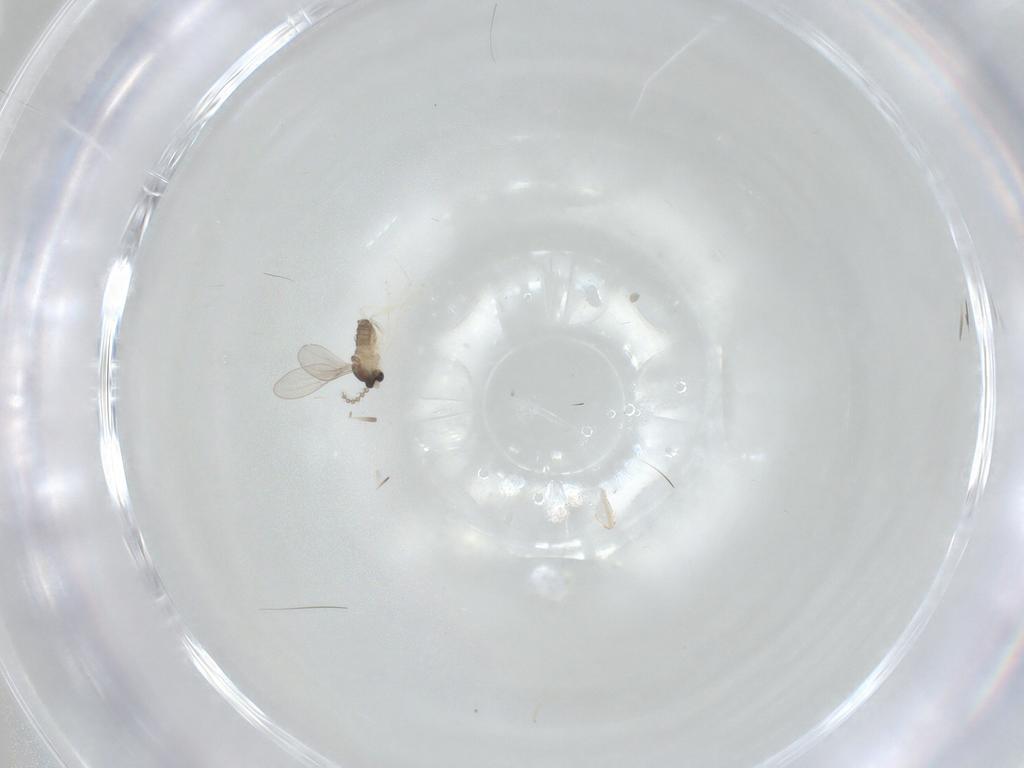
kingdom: Animalia
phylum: Arthropoda
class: Insecta
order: Diptera
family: Cecidomyiidae
